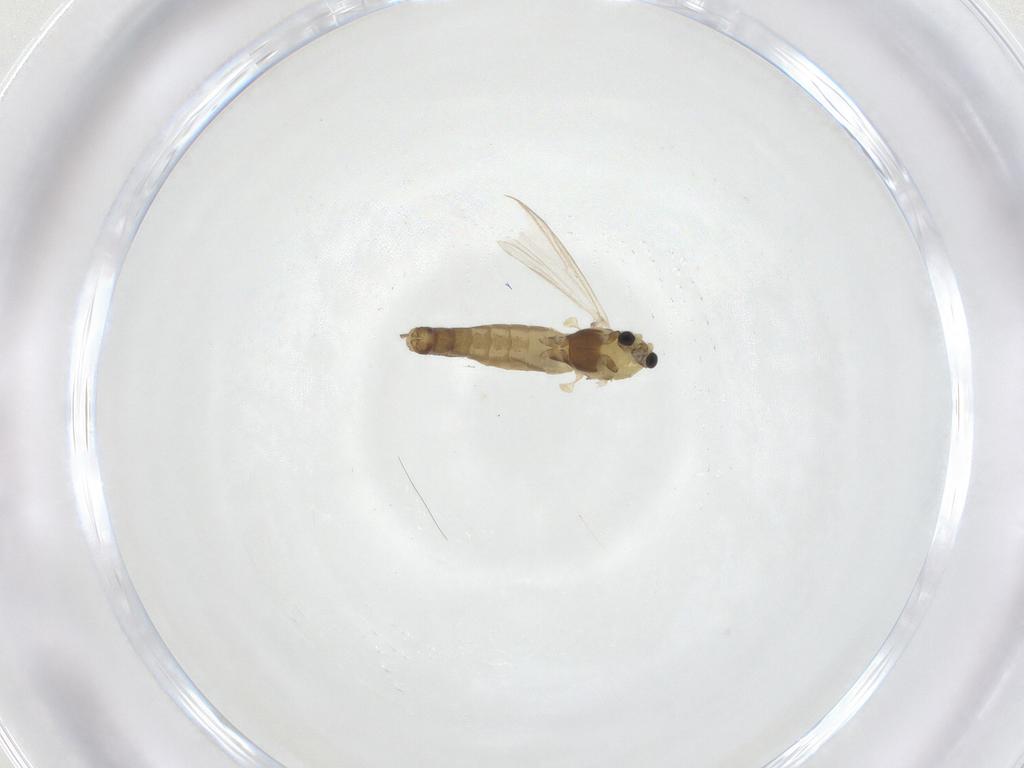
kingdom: Animalia
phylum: Arthropoda
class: Insecta
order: Diptera
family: Chironomidae
